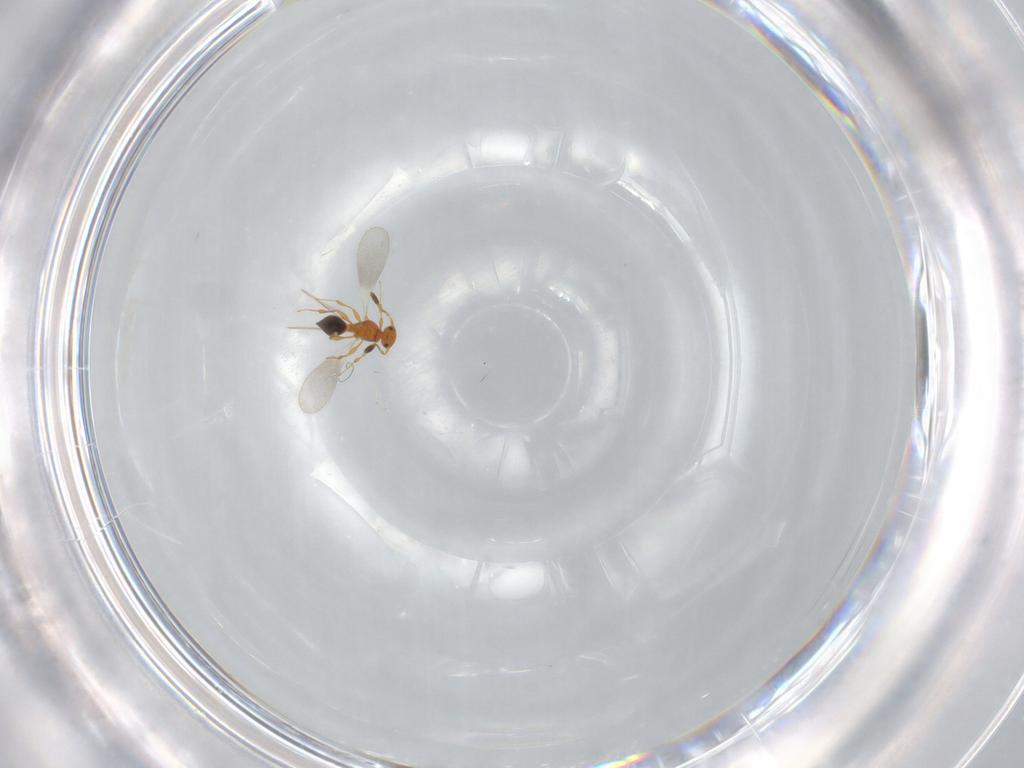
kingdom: Animalia
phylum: Arthropoda
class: Insecta
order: Hymenoptera
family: Platygastridae
